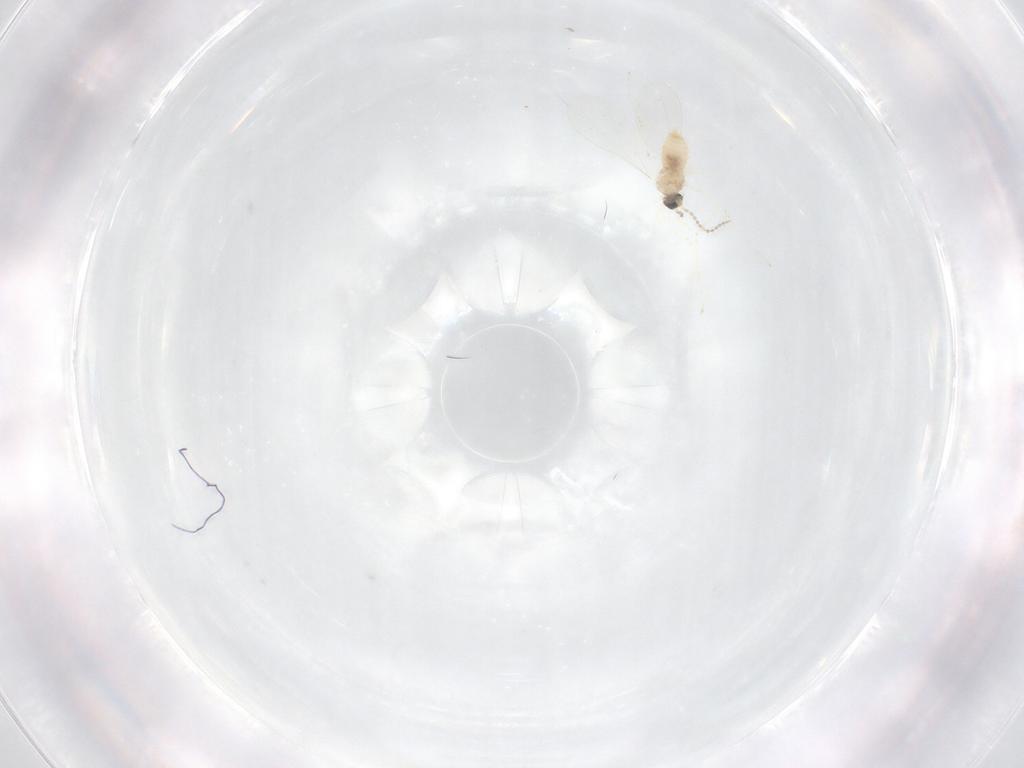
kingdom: Animalia
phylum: Arthropoda
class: Insecta
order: Diptera
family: Cecidomyiidae
